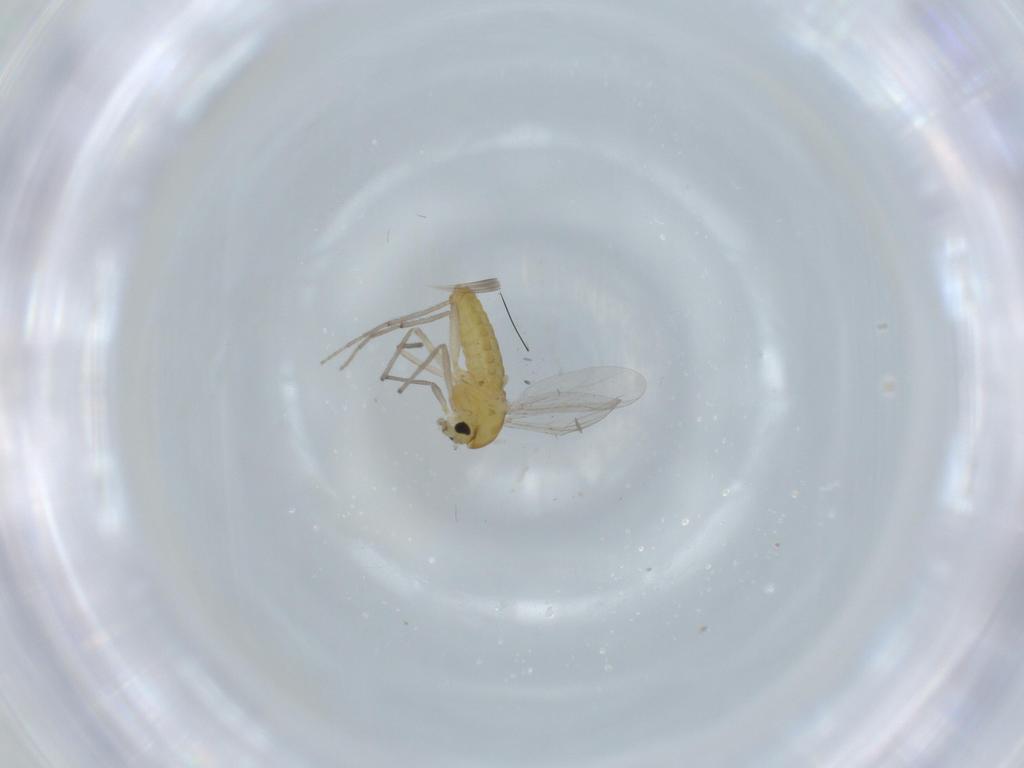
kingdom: Animalia
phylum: Arthropoda
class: Insecta
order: Diptera
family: Chironomidae
